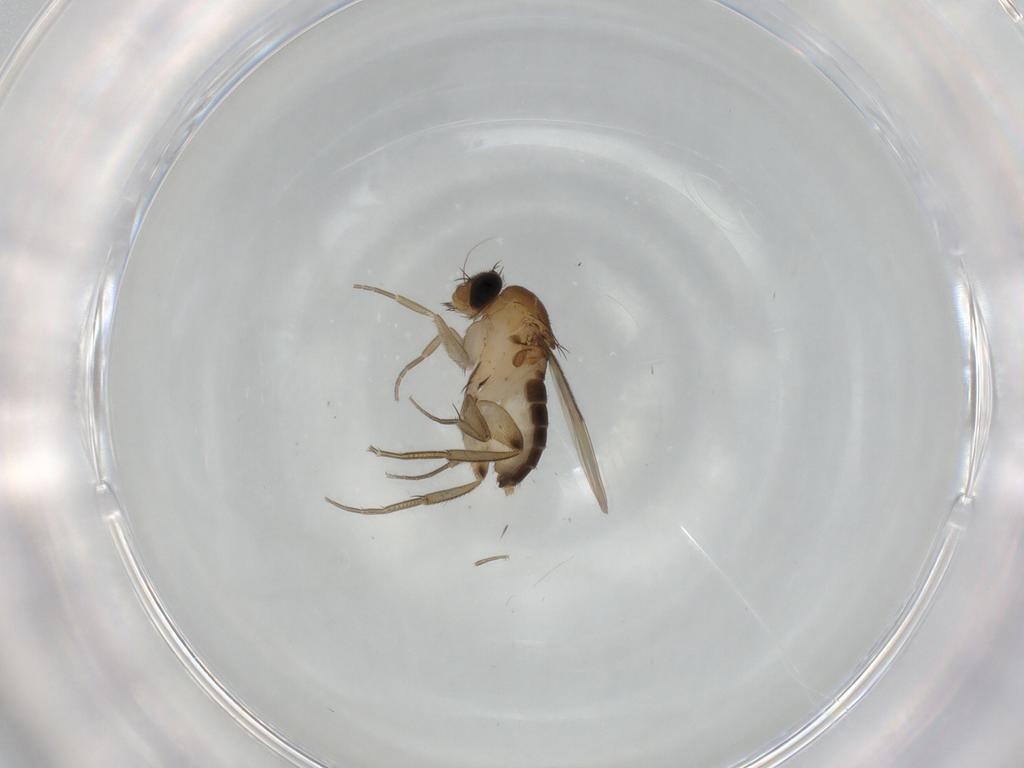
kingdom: Animalia
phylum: Arthropoda
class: Insecta
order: Diptera
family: Phoridae
